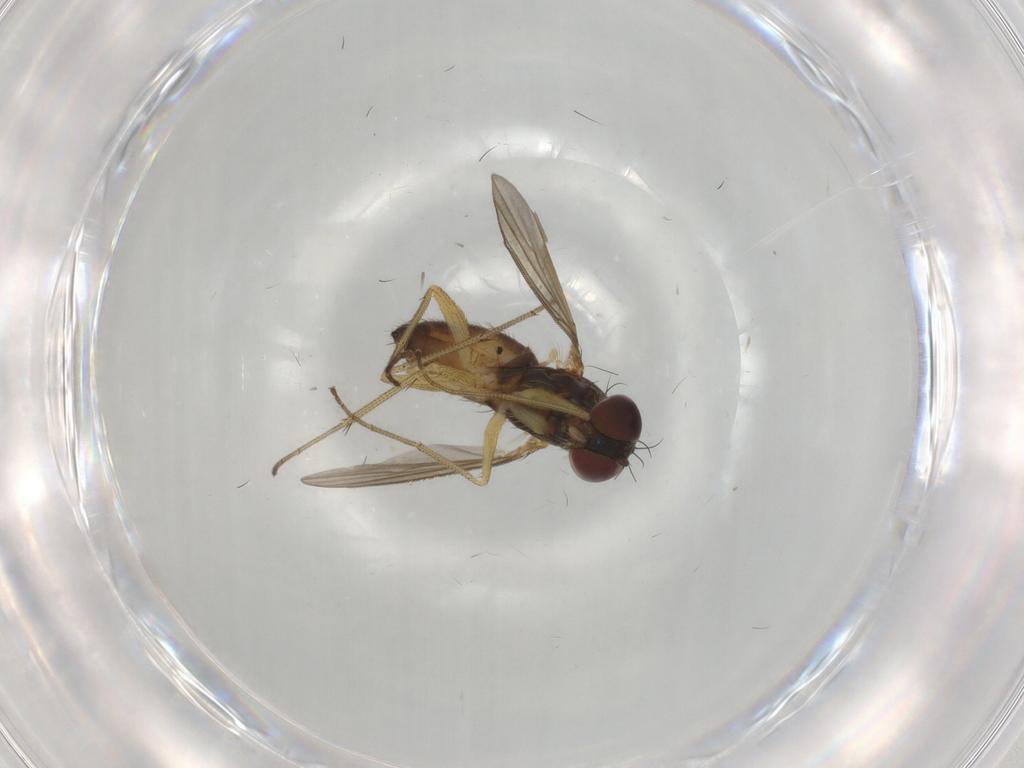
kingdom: Animalia
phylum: Arthropoda
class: Insecta
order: Diptera
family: Dolichopodidae
